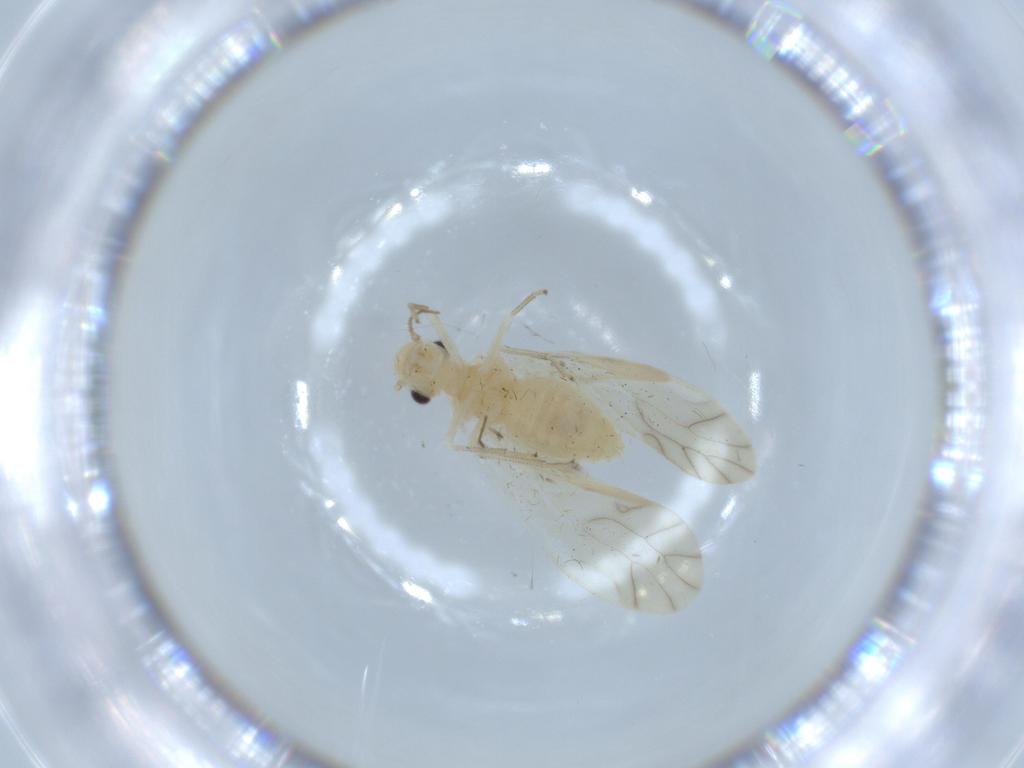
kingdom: Animalia
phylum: Arthropoda
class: Insecta
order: Psocodea
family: Caeciliusidae
